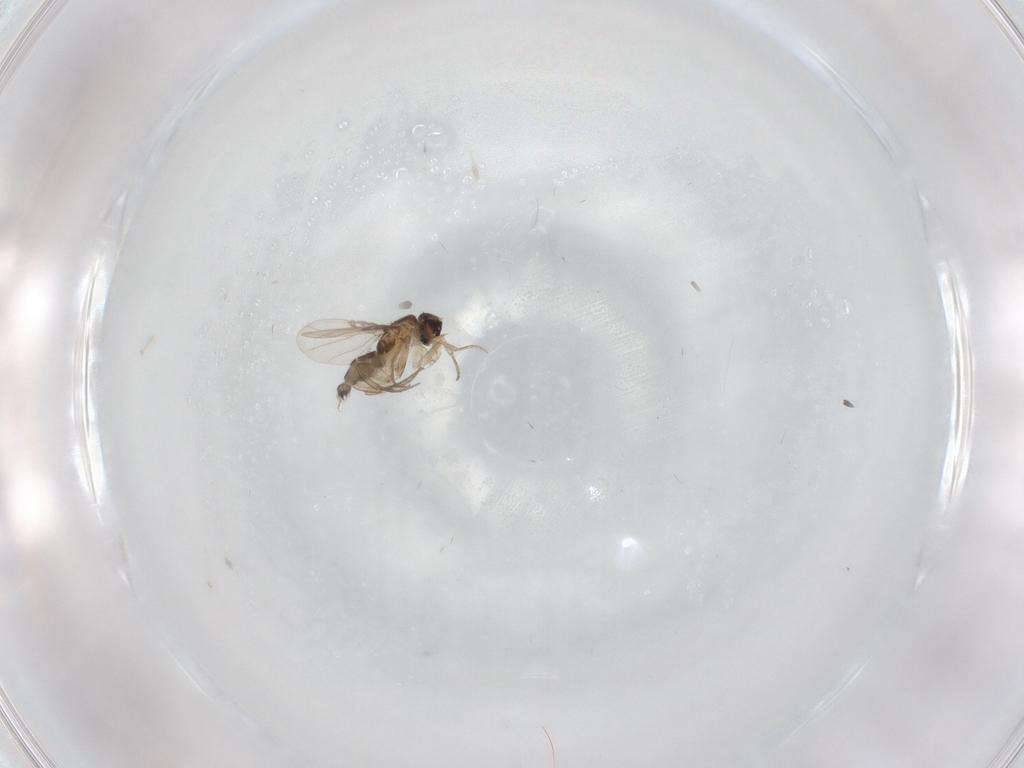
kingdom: Animalia
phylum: Arthropoda
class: Insecta
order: Diptera
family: Phoridae
